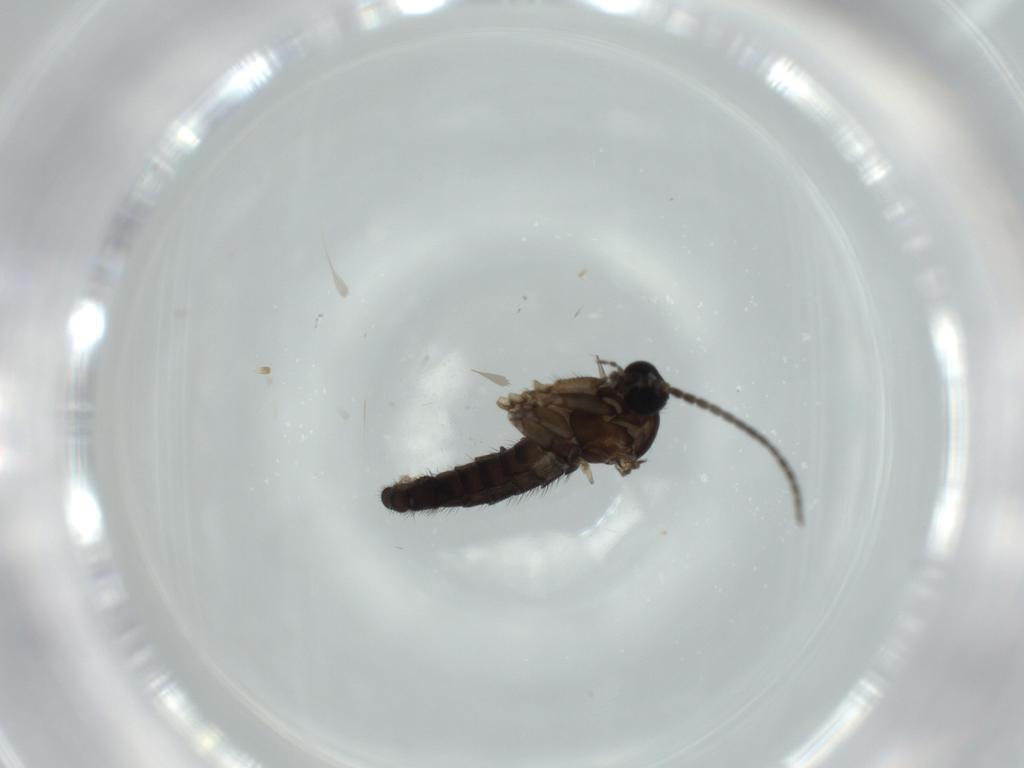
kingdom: Animalia
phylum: Arthropoda
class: Insecta
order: Diptera
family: Sciaridae
